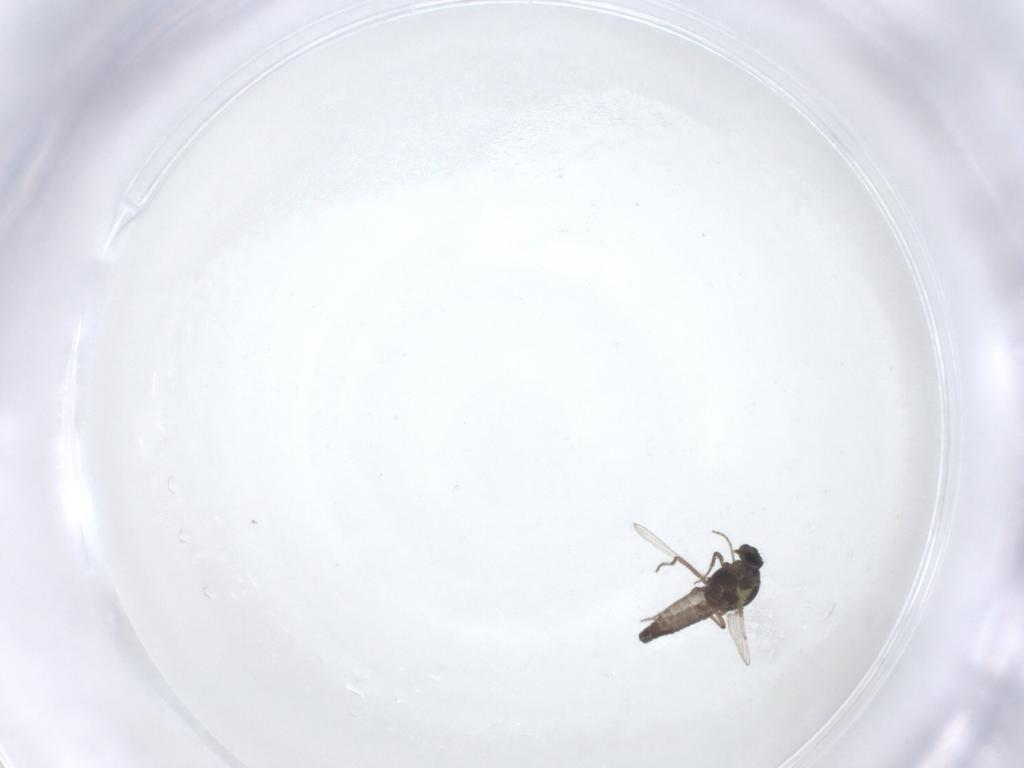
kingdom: Animalia
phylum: Arthropoda
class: Insecta
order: Diptera
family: Ceratopogonidae
